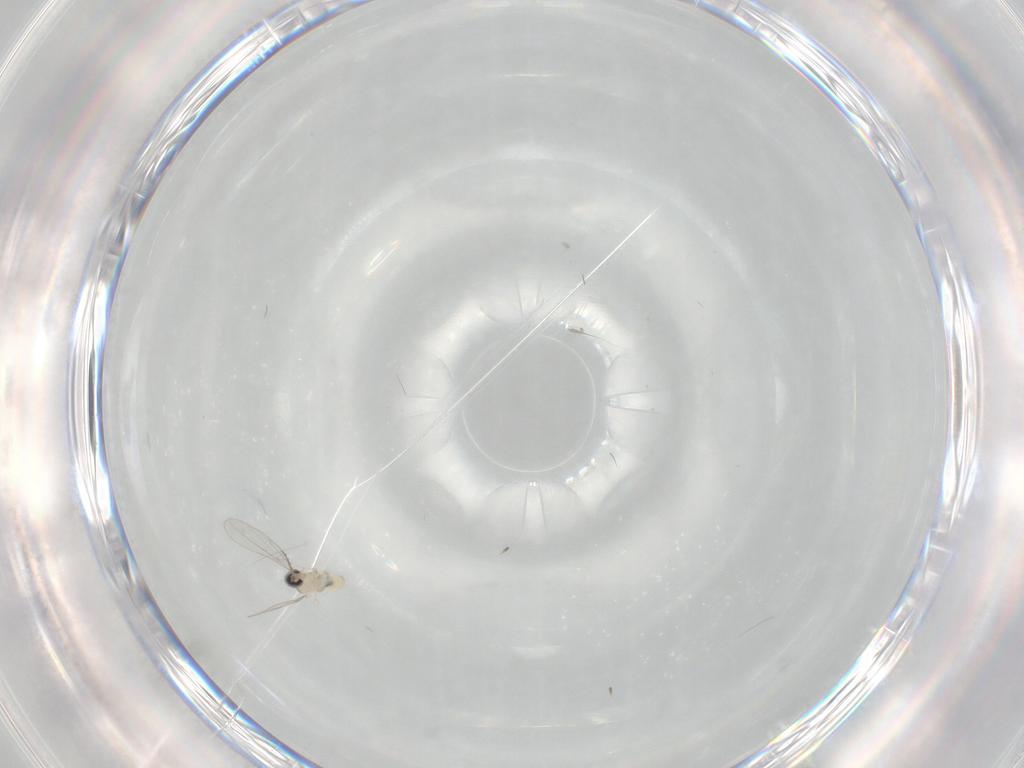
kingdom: Animalia
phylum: Arthropoda
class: Insecta
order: Diptera
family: Cecidomyiidae
